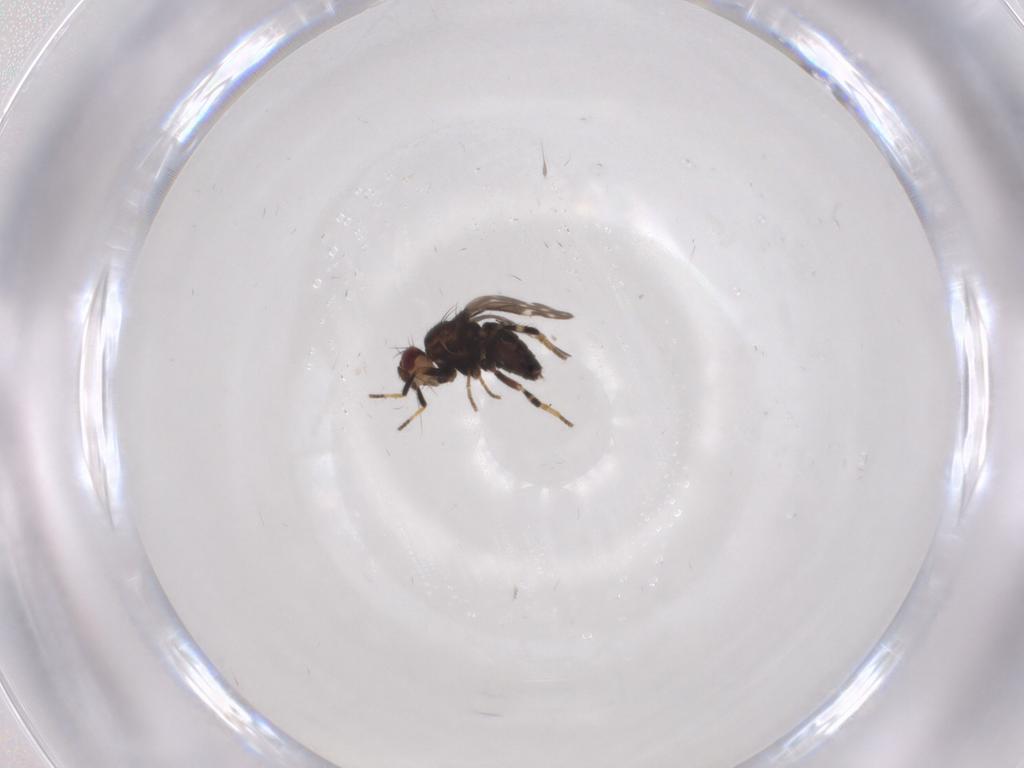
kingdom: Animalia
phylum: Arthropoda
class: Insecta
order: Diptera
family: Sphaeroceridae
